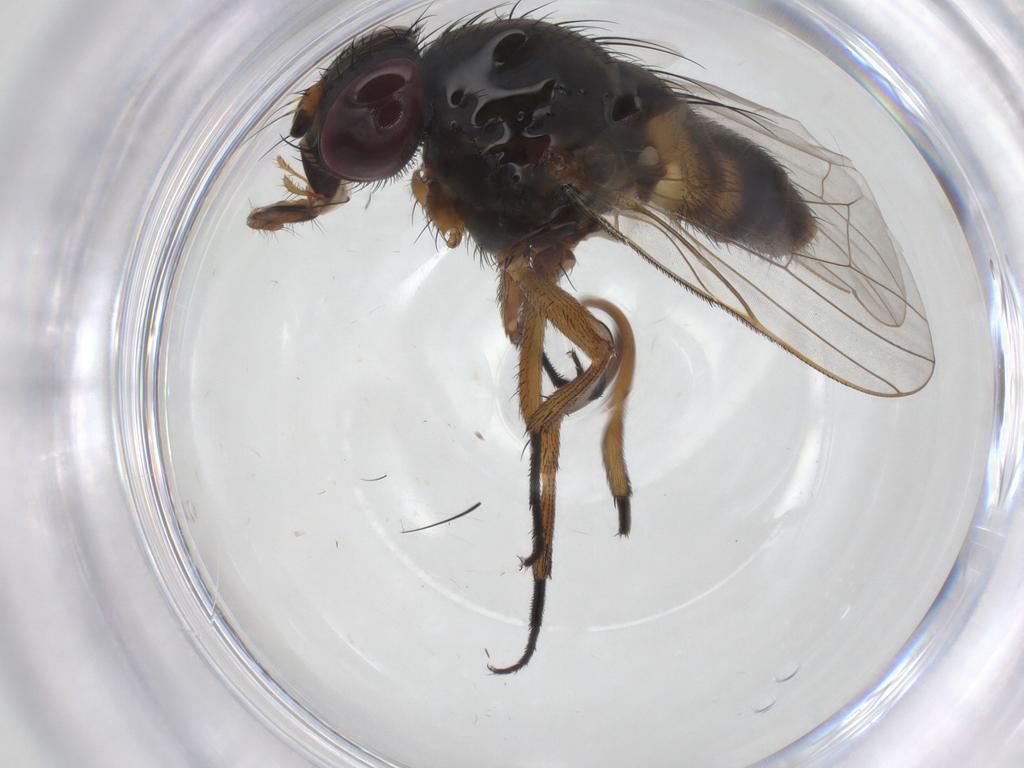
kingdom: Animalia
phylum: Arthropoda
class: Insecta
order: Diptera
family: Fannia
